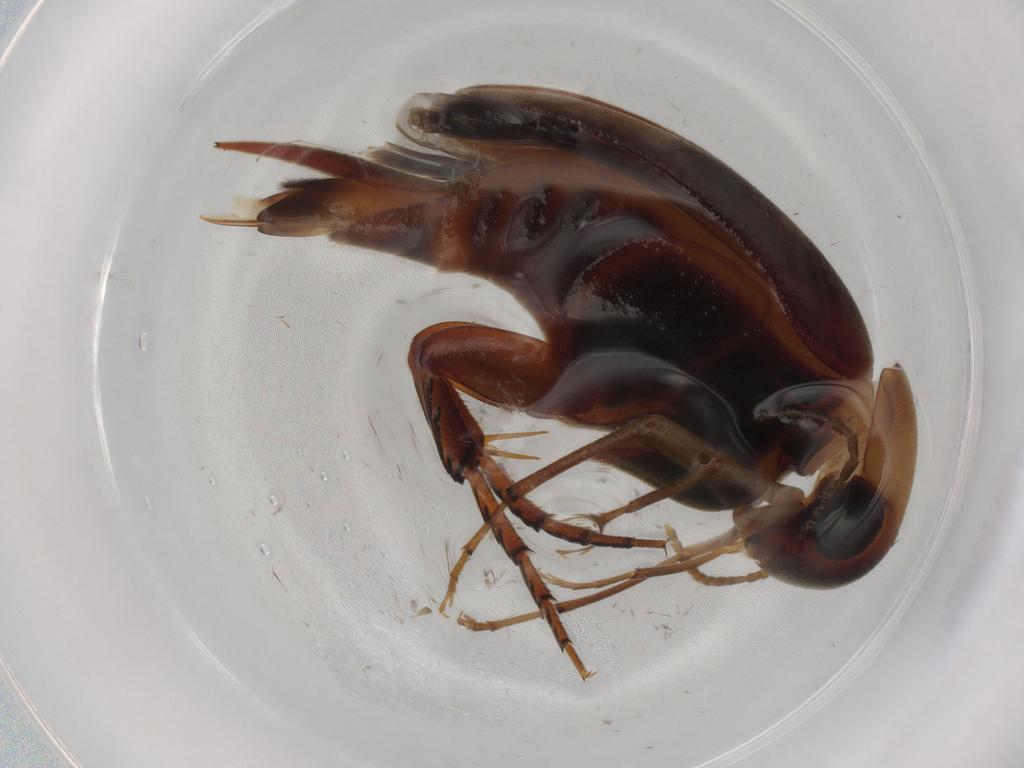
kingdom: Animalia
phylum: Arthropoda
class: Insecta
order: Coleoptera
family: Mordellidae
